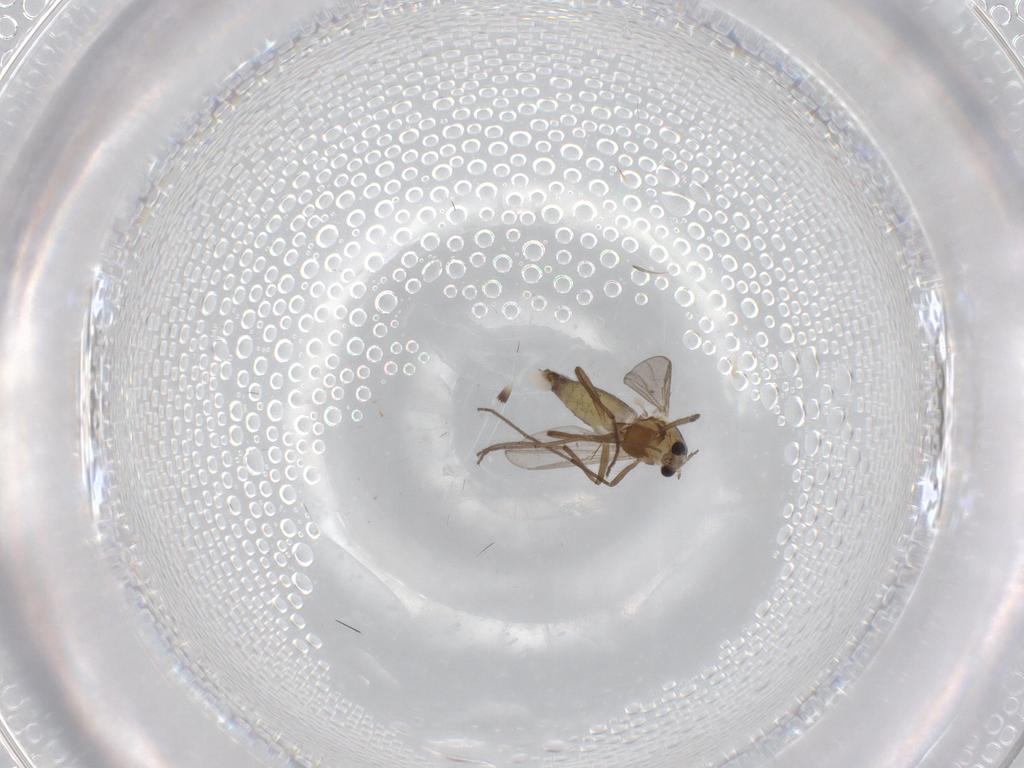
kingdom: Animalia
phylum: Arthropoda
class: Insecta
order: Diptera
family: Chironomidae
